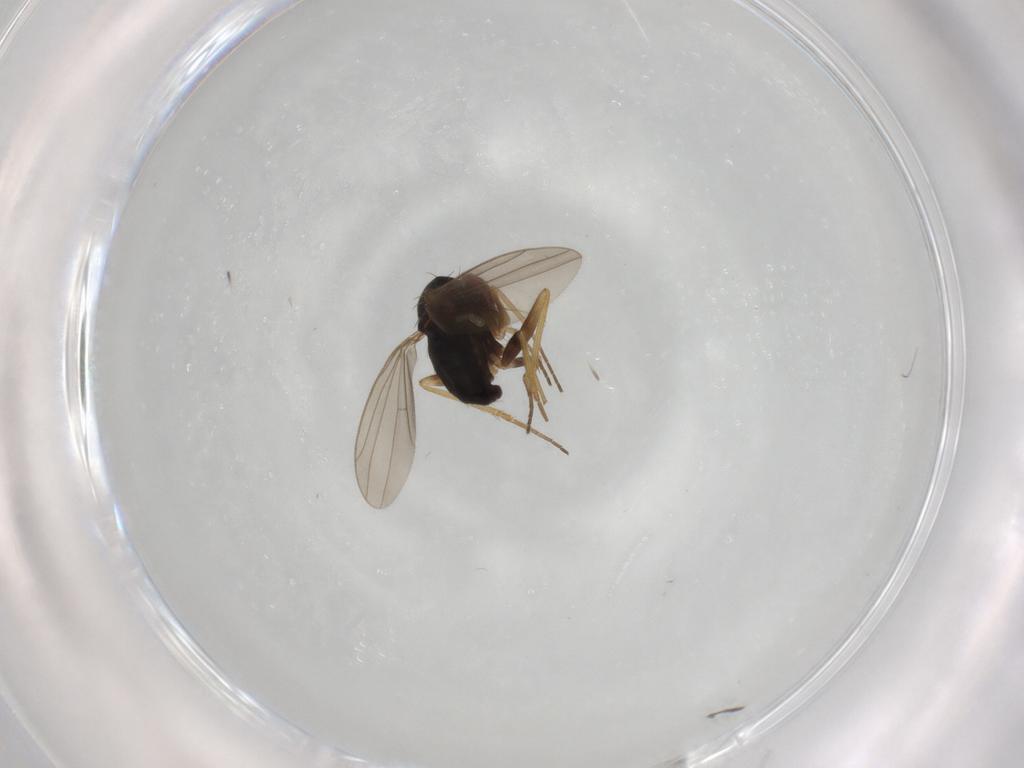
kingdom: Animalia
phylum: Arthropoda
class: Insecta
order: Diptera
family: Dolichopodidae
